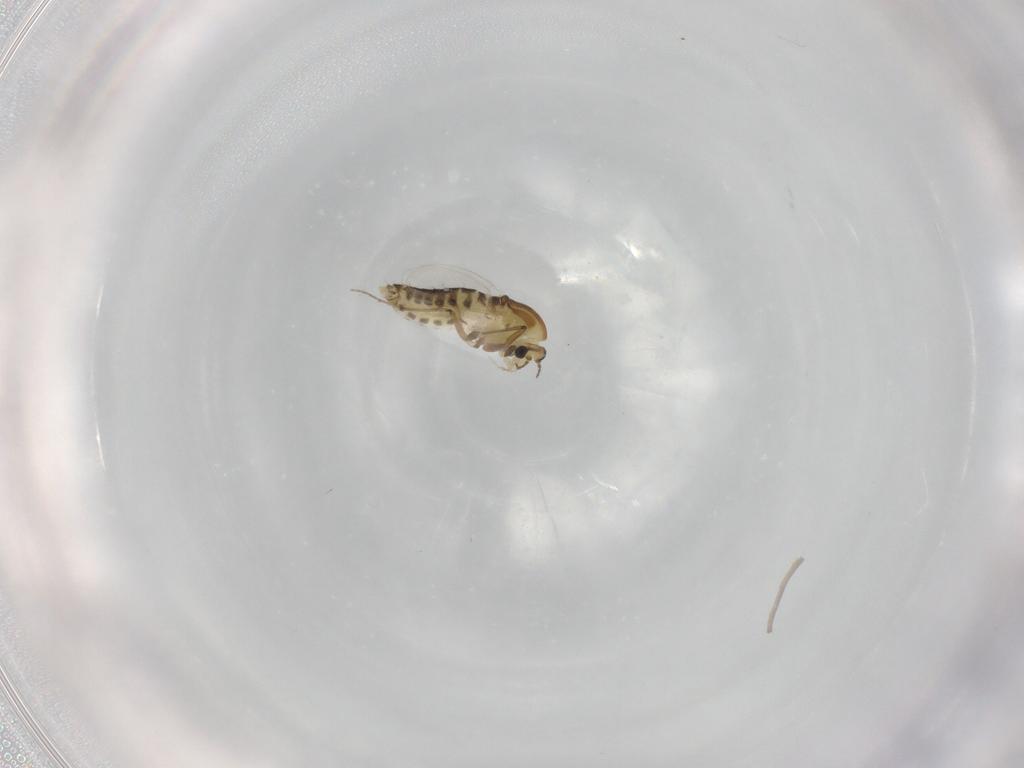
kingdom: Animalia
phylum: Arthropoda
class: Insecta
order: Diptera
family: Chironomidae
